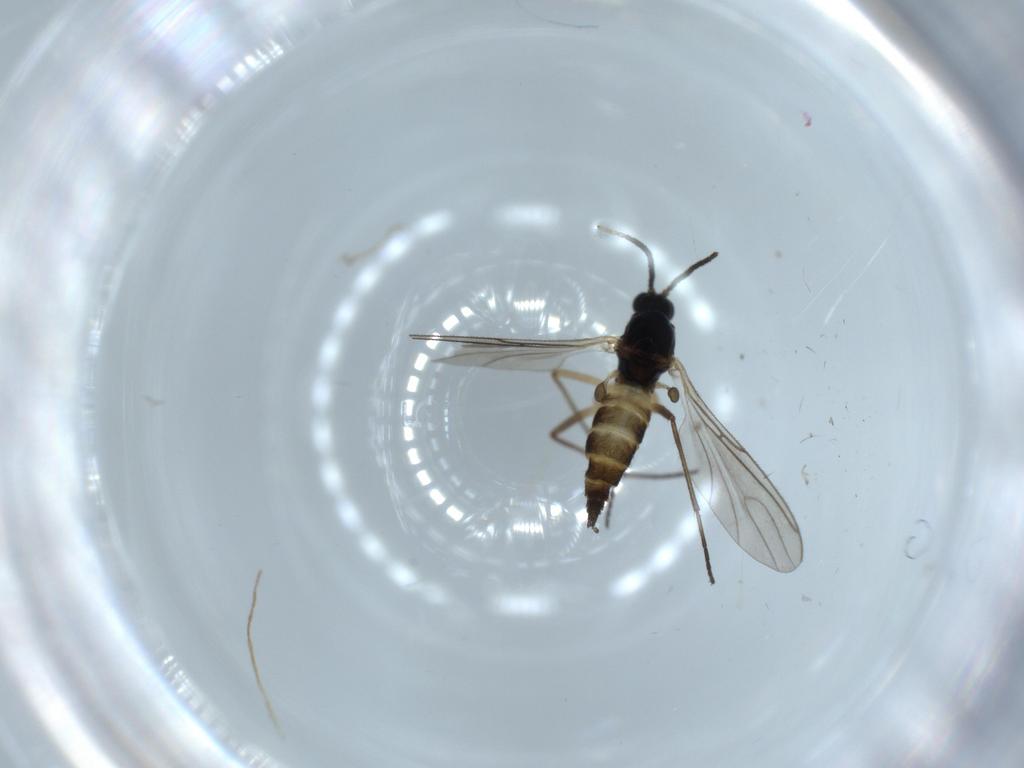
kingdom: Animalia
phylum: Arthropoda
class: Insecta
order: Diptera
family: Sciaridae
